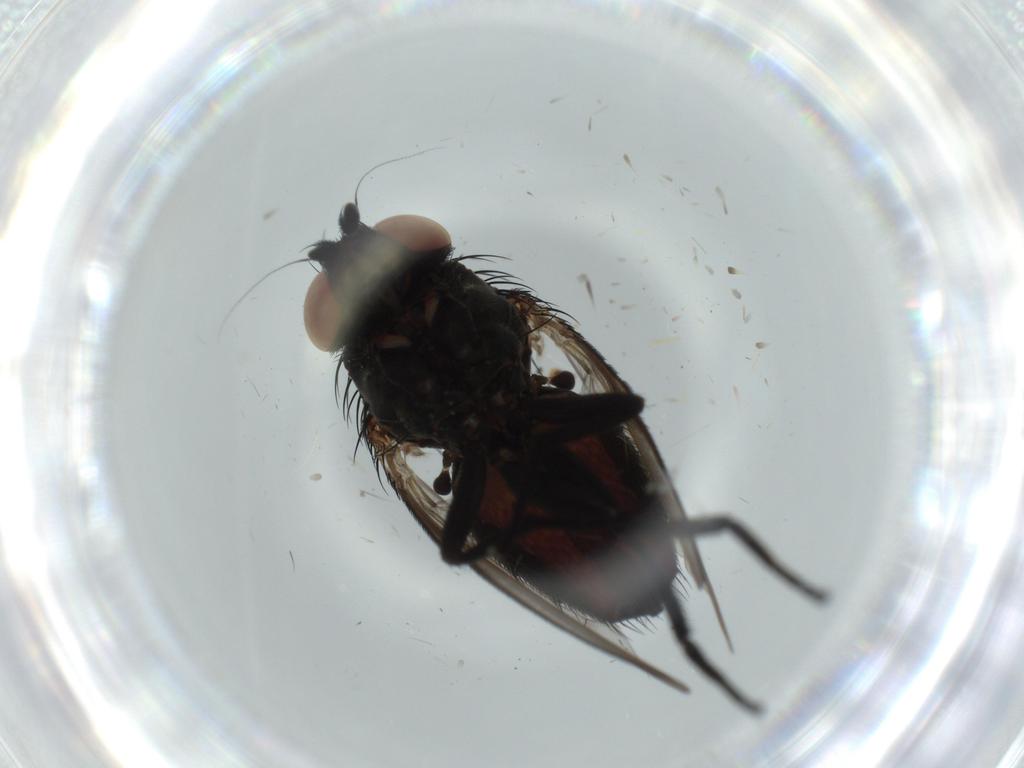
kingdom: Animalia
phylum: Arthropoda
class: Insecta
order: Diptera
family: Milichiidae
